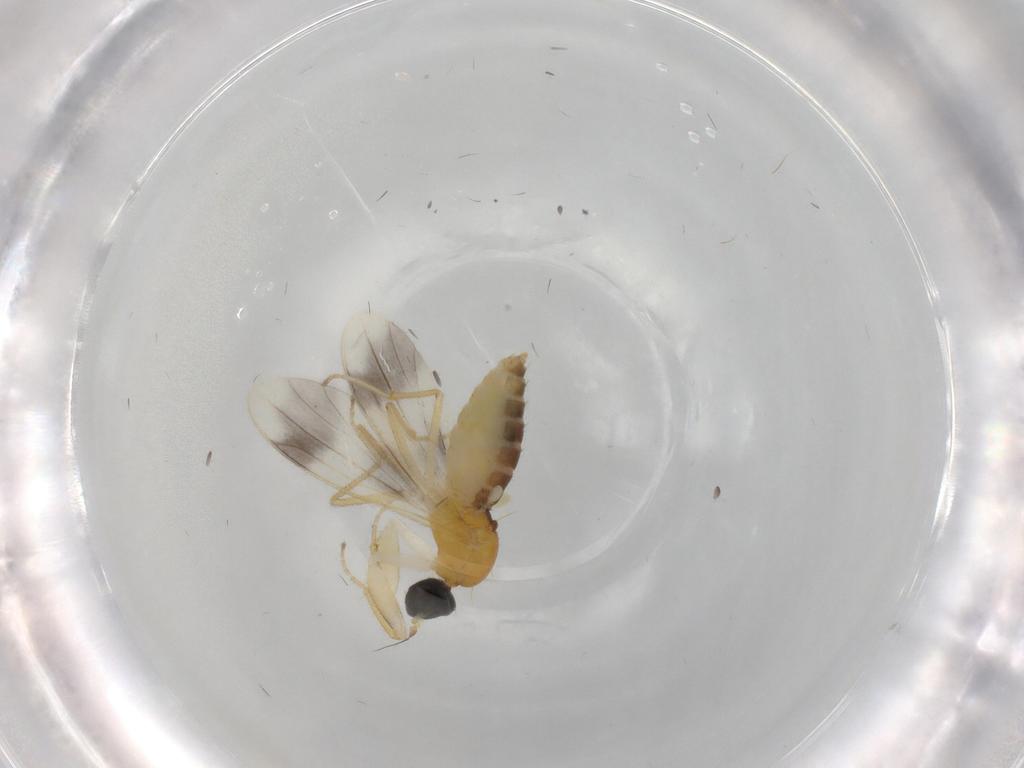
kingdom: Animalia
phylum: Arthropoda
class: Insecta
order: Diptera
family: Empididae
